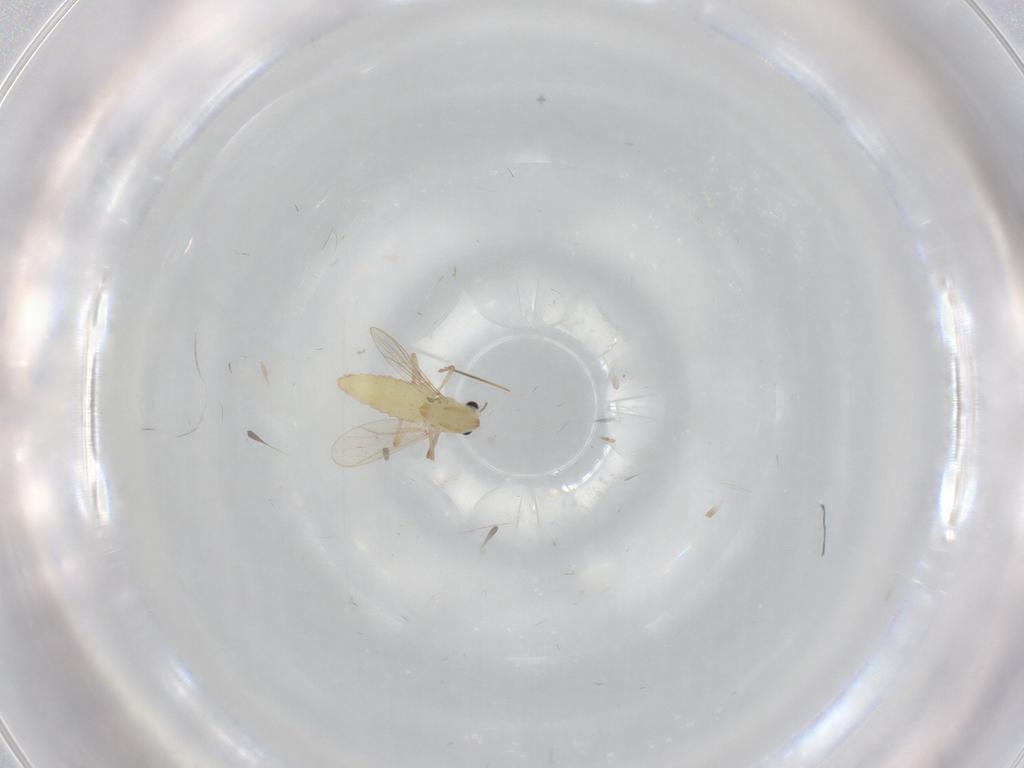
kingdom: Animalia
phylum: Arthropoda
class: Insecta
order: Diptera
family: Chironomidae
